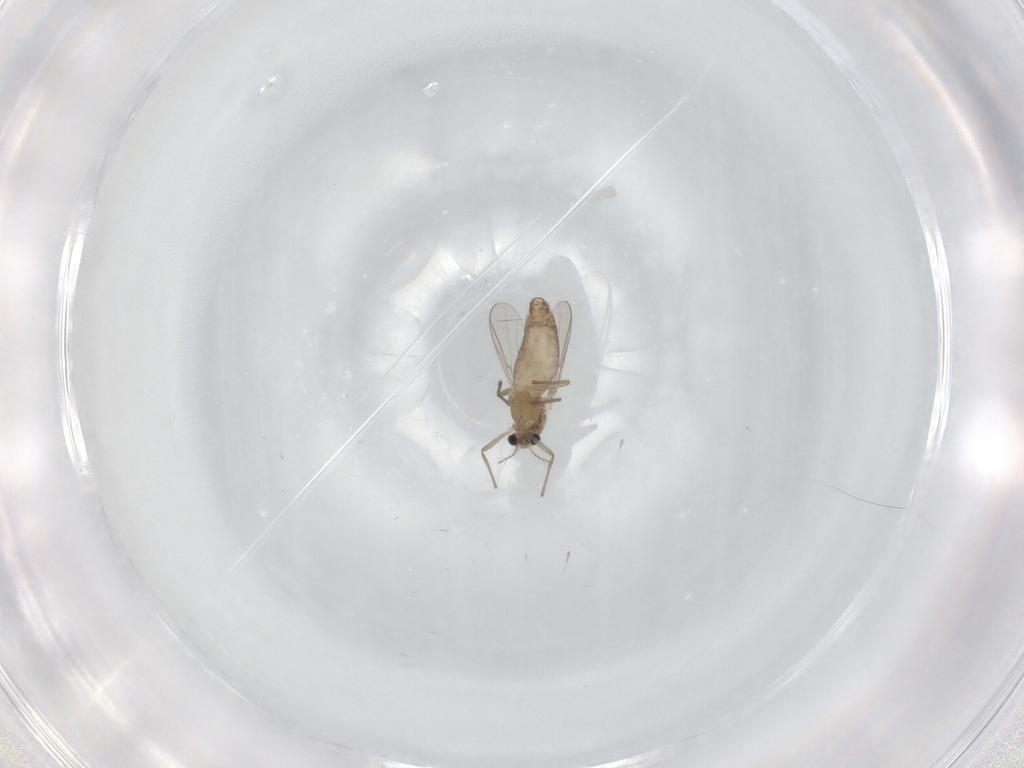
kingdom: Animalia
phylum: Arthropoda
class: Insecta
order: Diptera
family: Chironomidae
